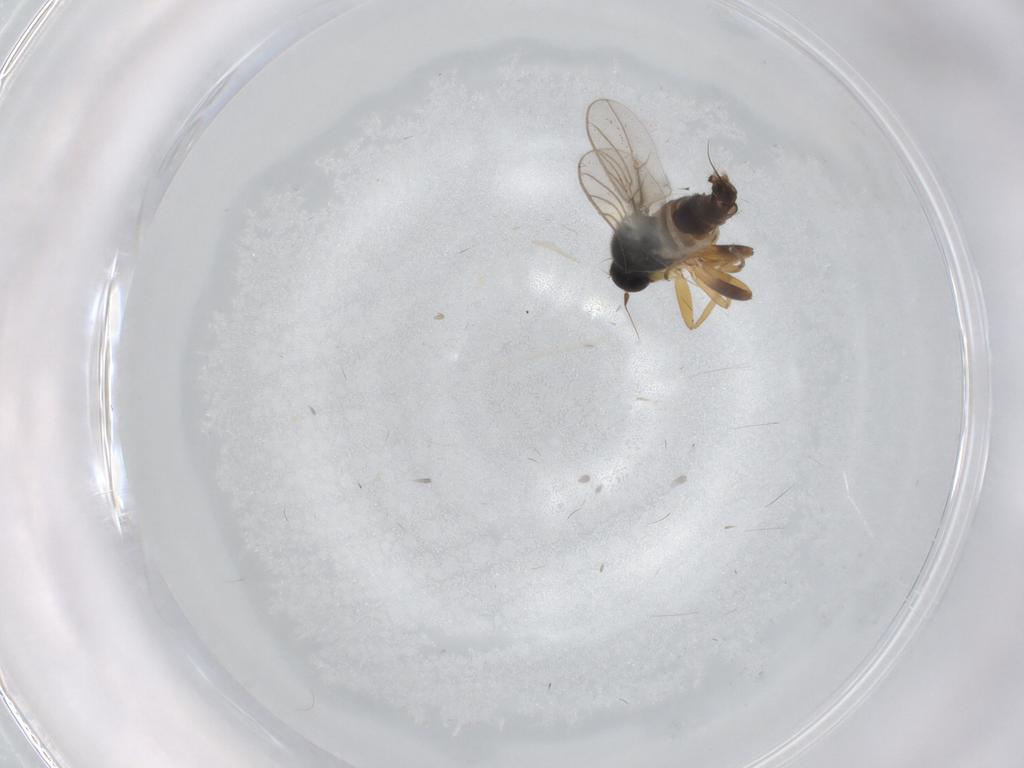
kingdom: Animalia
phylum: Arthropoda
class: Insecta
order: Diptera
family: Hybotidae
